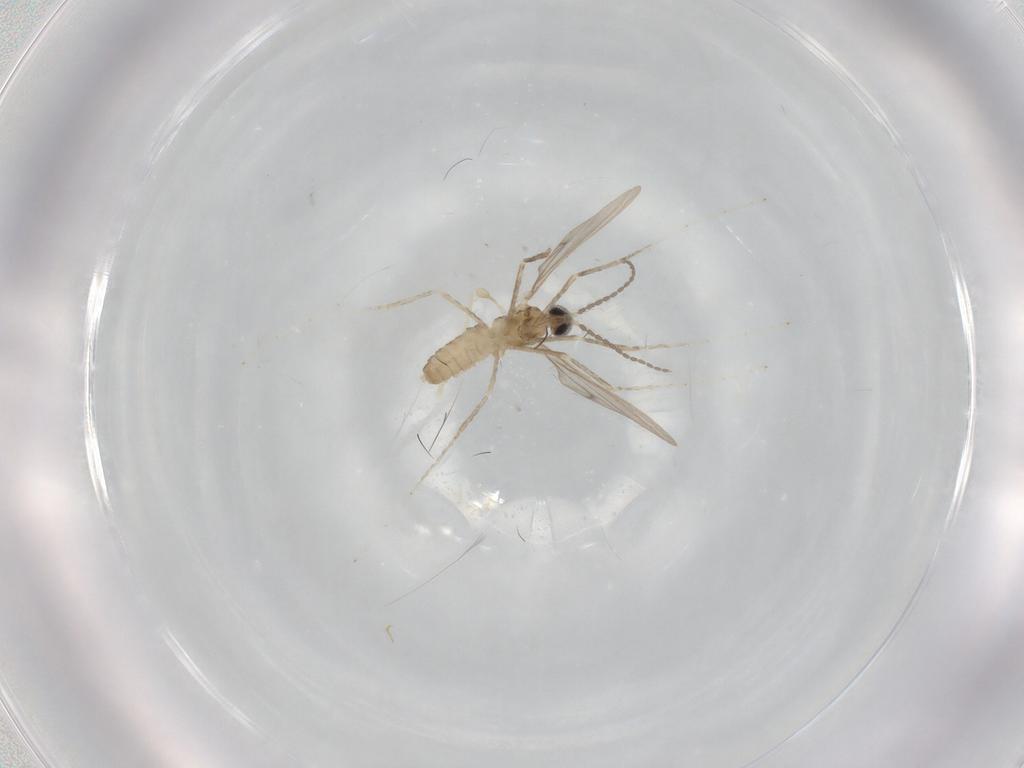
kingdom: Animalia
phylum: Arthropoda
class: Insecta
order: Diptera
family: Cecidomyiidae
